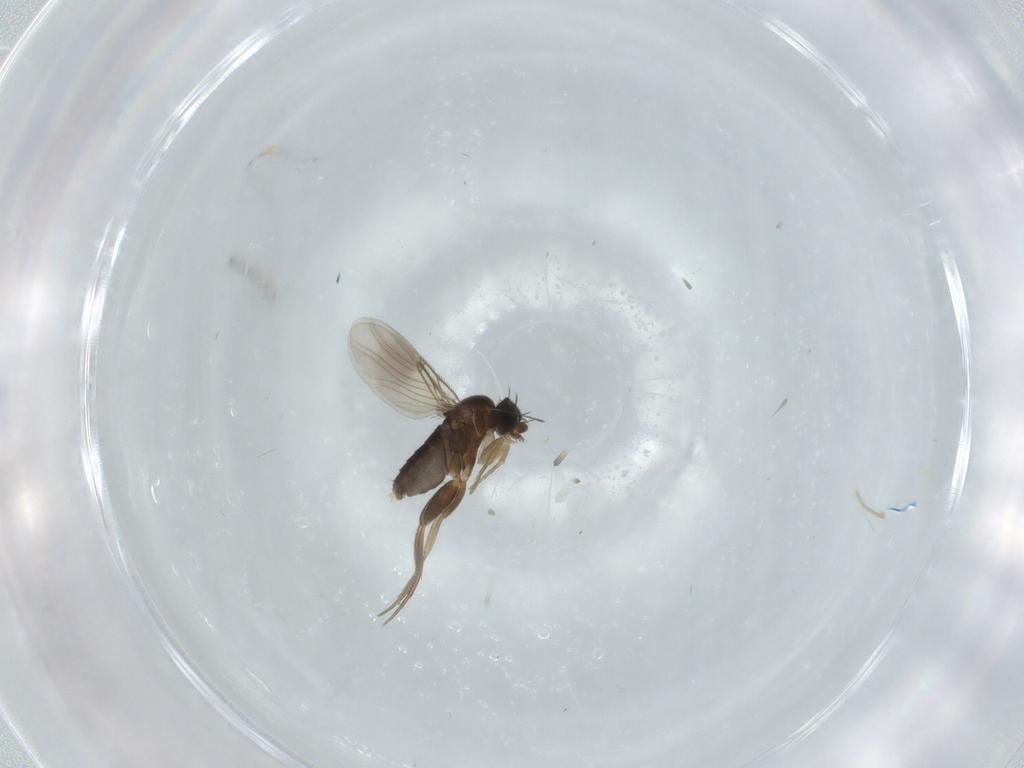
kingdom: Animalia
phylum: Arthropoda
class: Insecta
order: Diptera
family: Phoridae
